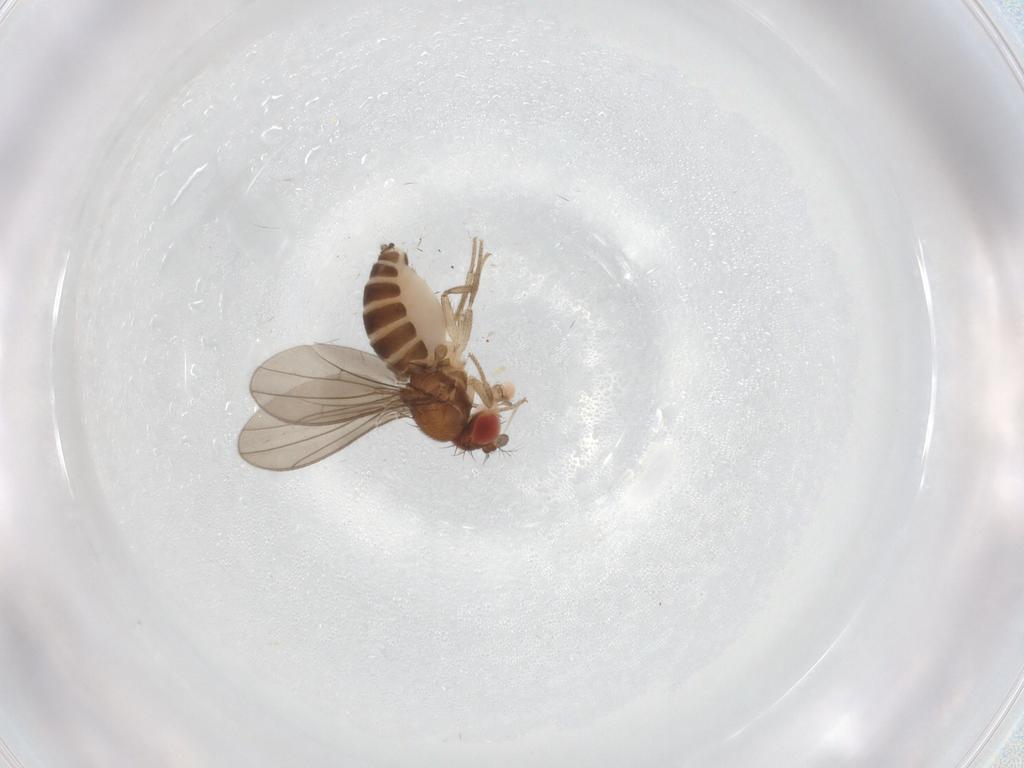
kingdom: Animalia
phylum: Arthropoda
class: Insecta
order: Diptera
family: Drosophilidae
